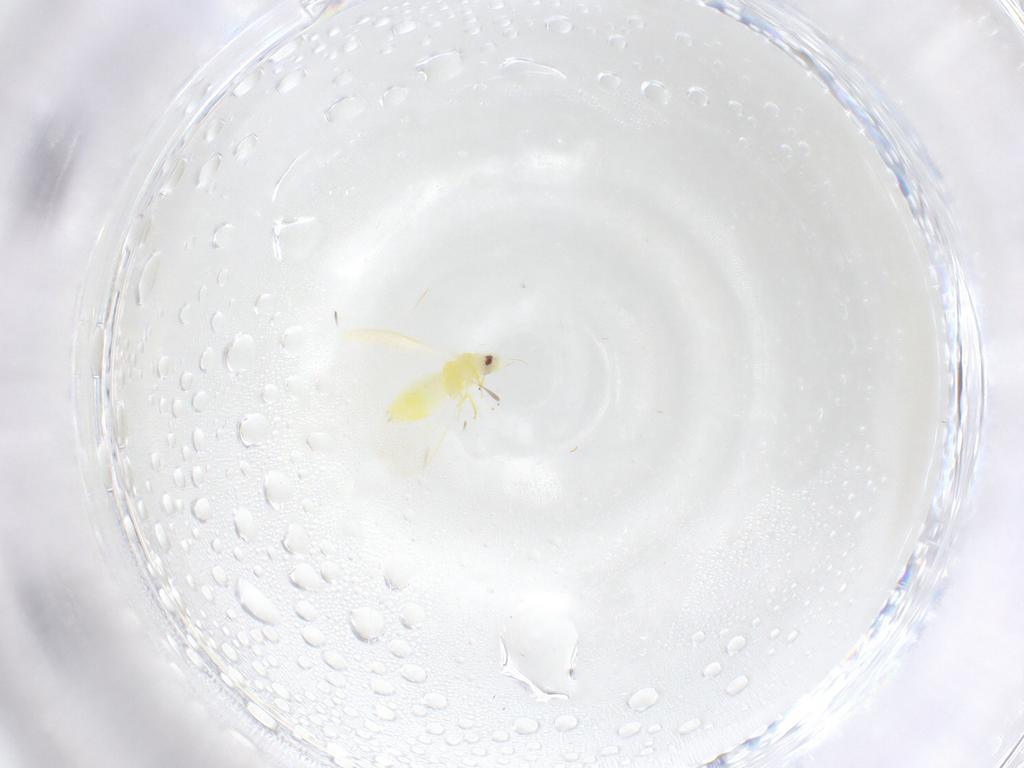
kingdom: Animalia
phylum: Arthropoda
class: Insecta
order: Hemiptera
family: Aleyrodidae
